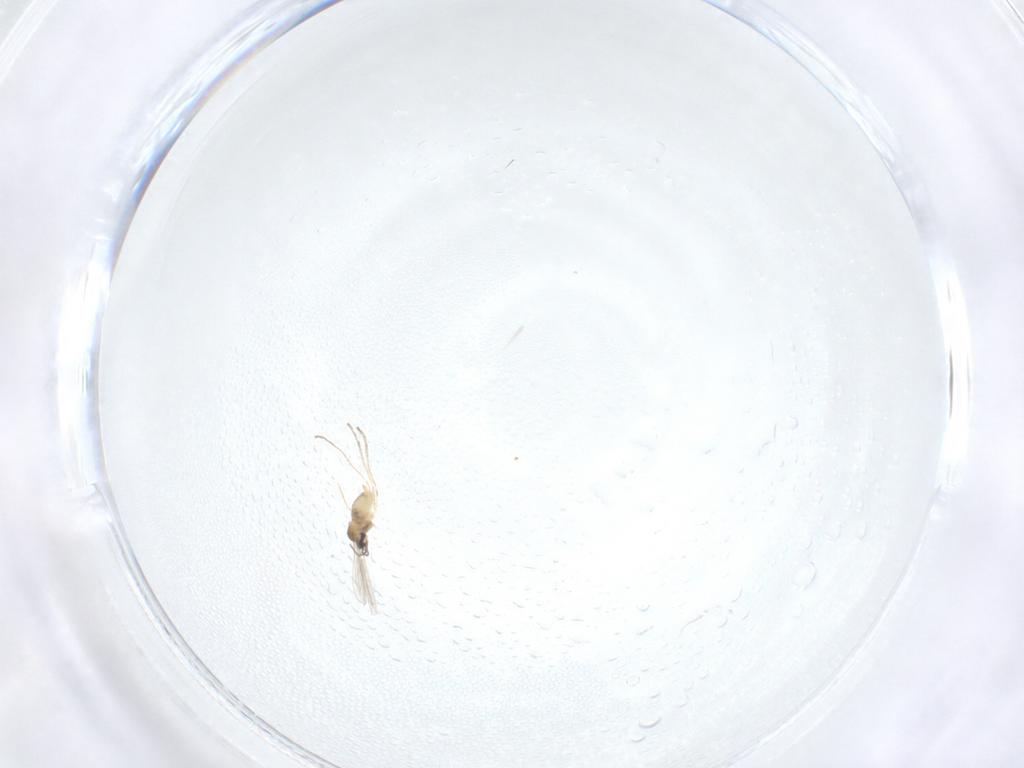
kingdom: Animalia
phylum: Arthropoda
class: Insecta
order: Diptera
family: Cecidomyiidae
